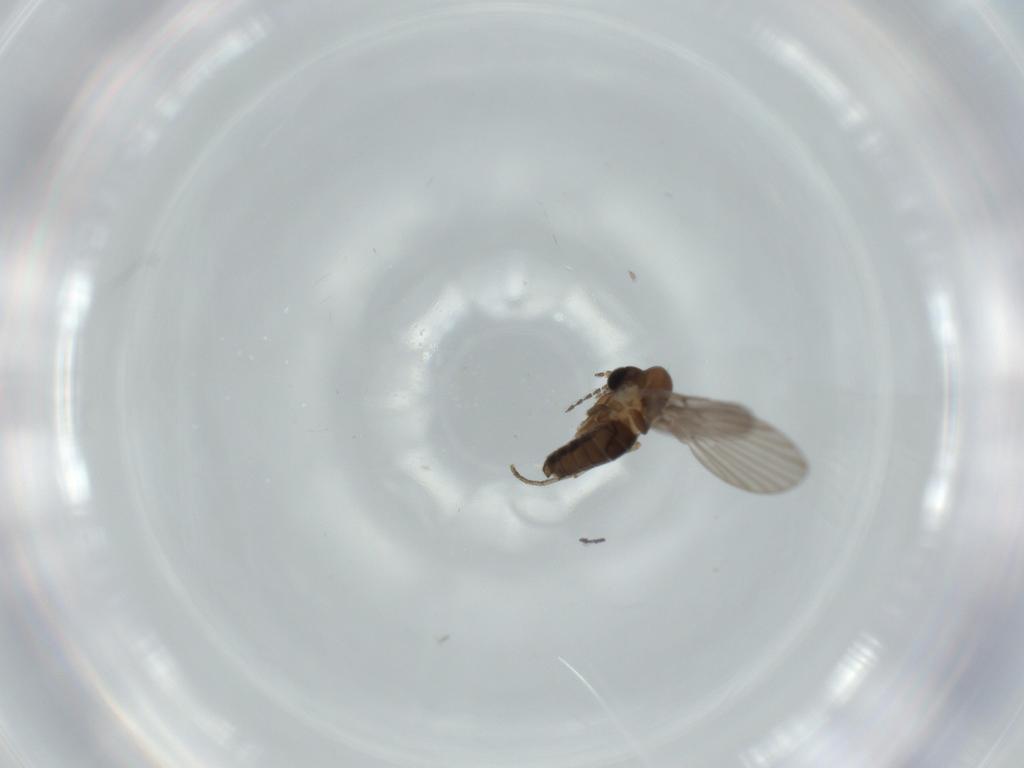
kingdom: Animalia
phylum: Arthropoda
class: Insecta
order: Diptera
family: Psychodidae
